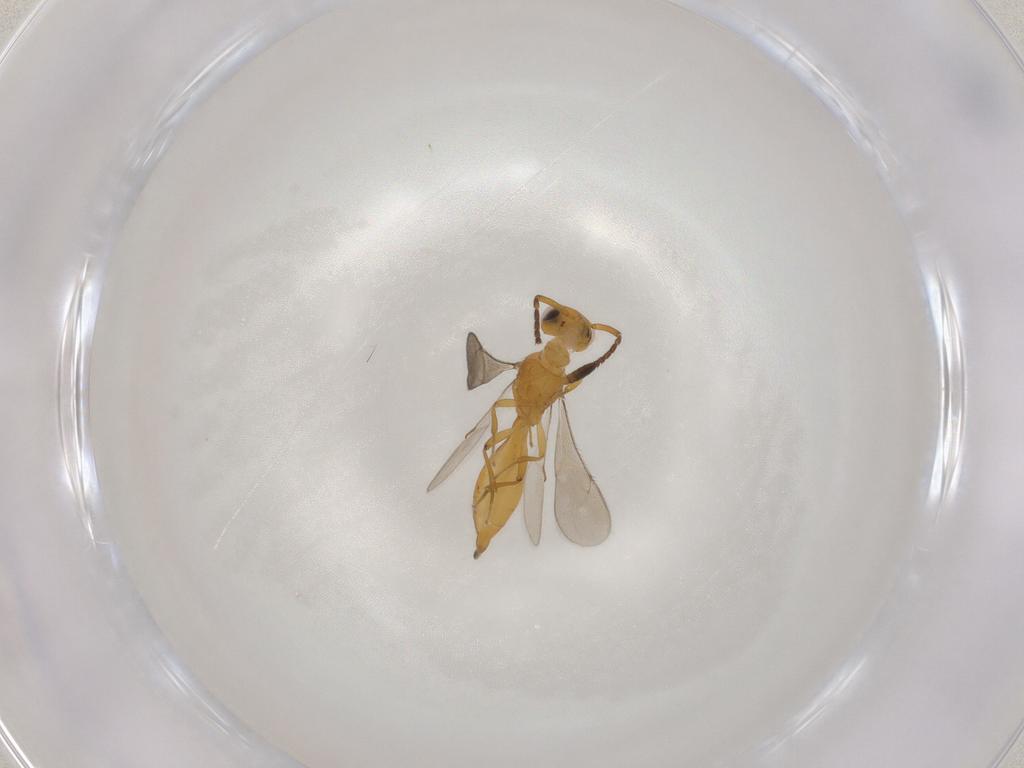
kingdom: Animalia
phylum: Arthropoda
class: Insecta
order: Hymenoptera
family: Scelionidae
